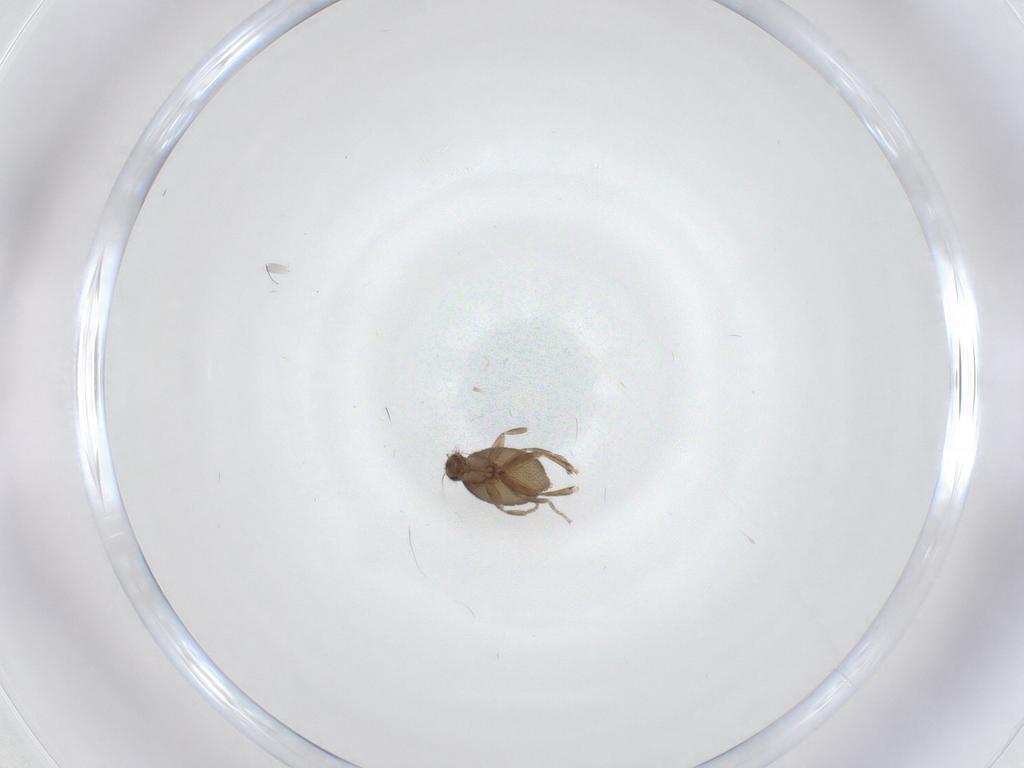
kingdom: Animalia
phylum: Arthropoda
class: Insecta
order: Diptera
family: Phoridae
